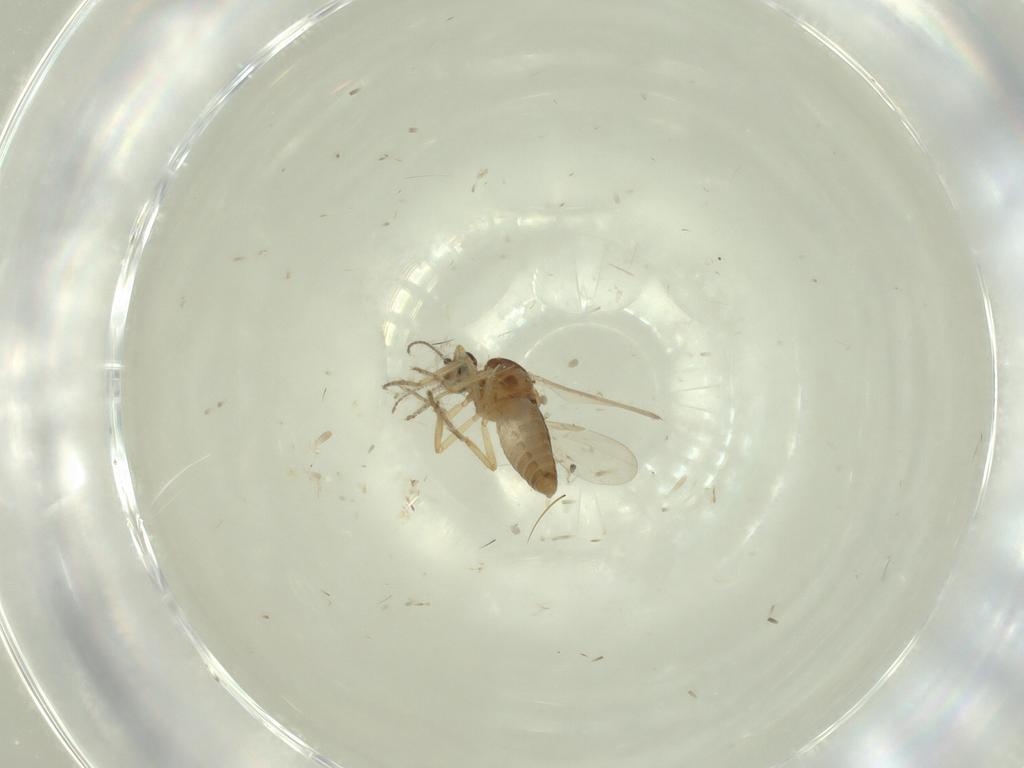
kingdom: Animalia
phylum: Arthropoda
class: Insecta
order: Diptera
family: Ceratopogonidae
